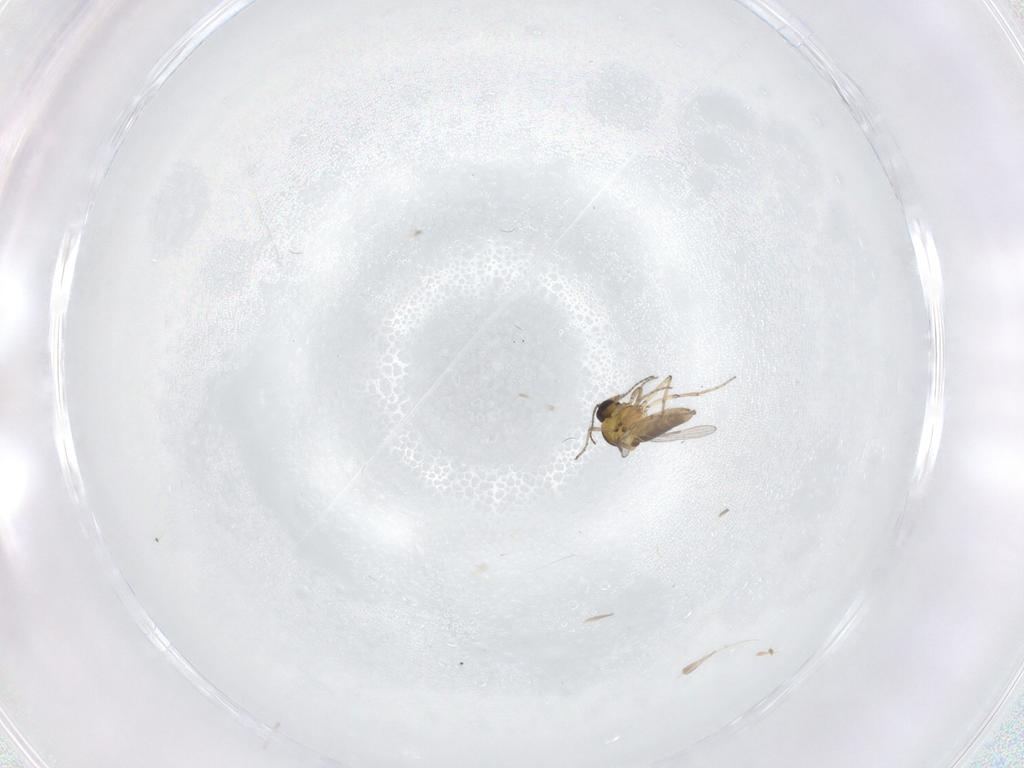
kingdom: Animalia
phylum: Arthropoda
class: Insecta
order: Diptera
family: Ceratopogonidae
